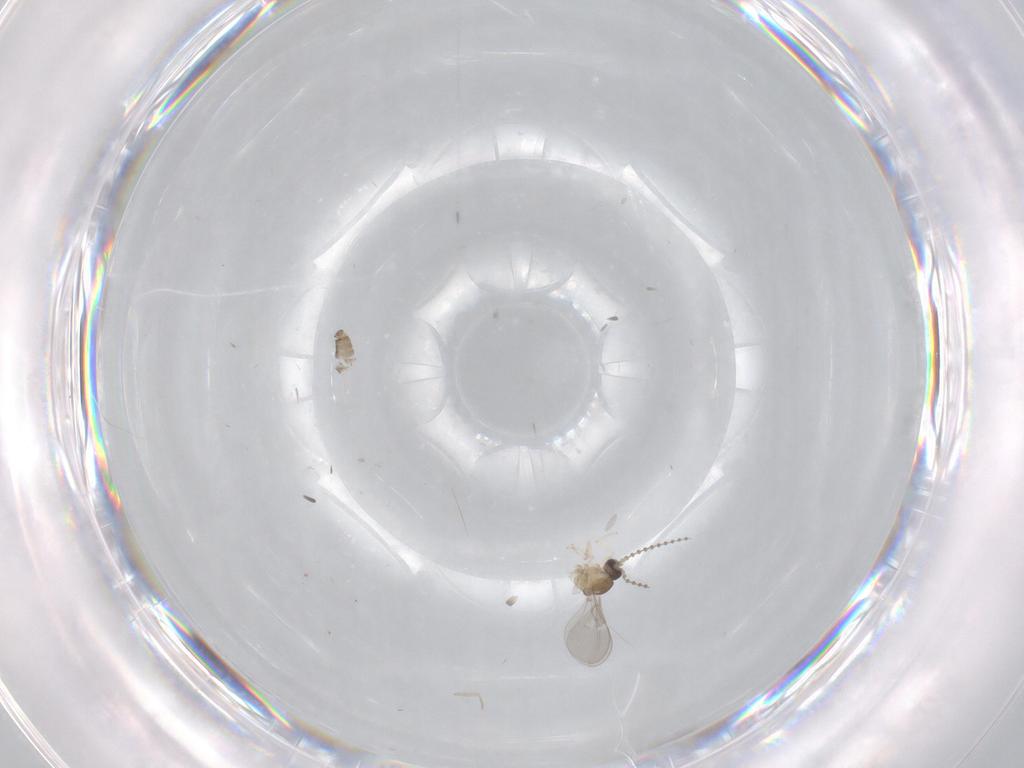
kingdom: Animalia
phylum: Arthropoda
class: Insecta
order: Diptera
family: Cecidomyiidae
